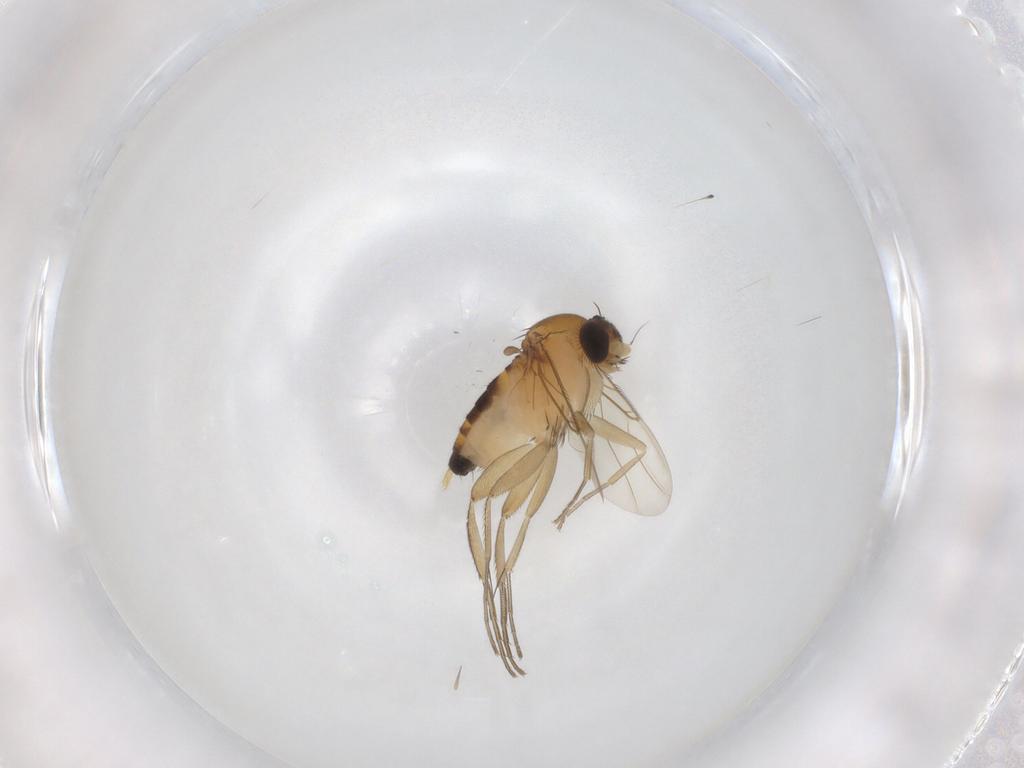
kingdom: Animalia
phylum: Arthropoda
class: Insecta
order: Diptera
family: Phoridae
